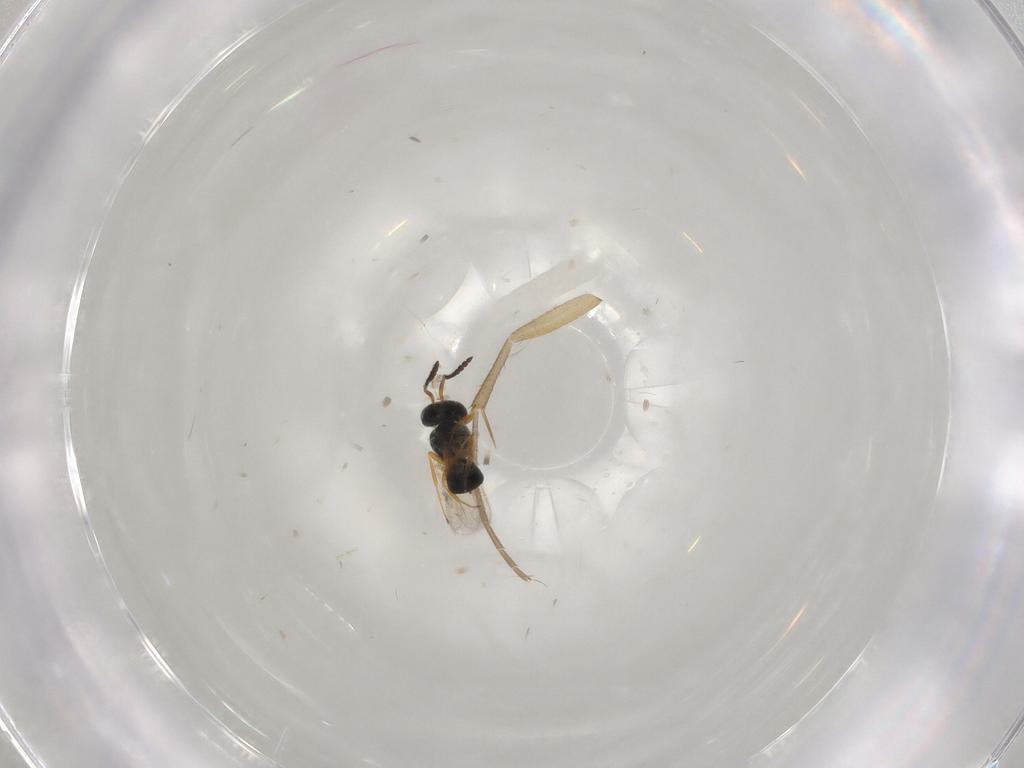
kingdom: Animalia
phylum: Arthropoda
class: Insecta
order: Hymenoptera
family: Scelionidae
